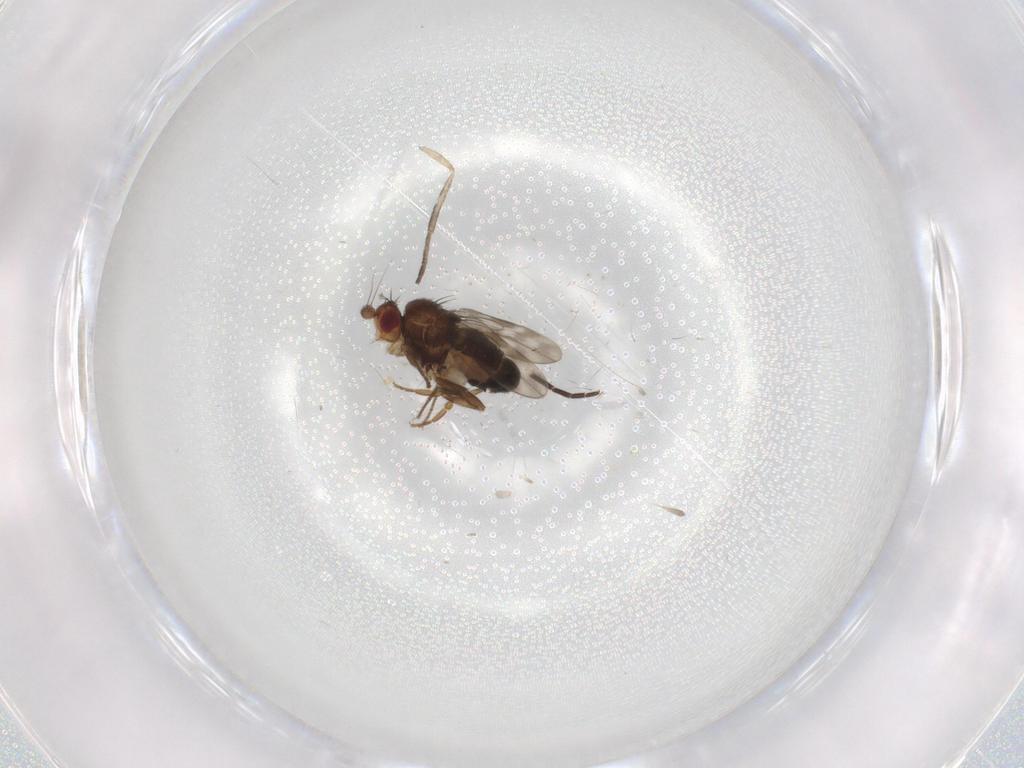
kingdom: Animalia
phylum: Arthropoda
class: Insecta
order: Diptera
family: Sphaeroceridae
